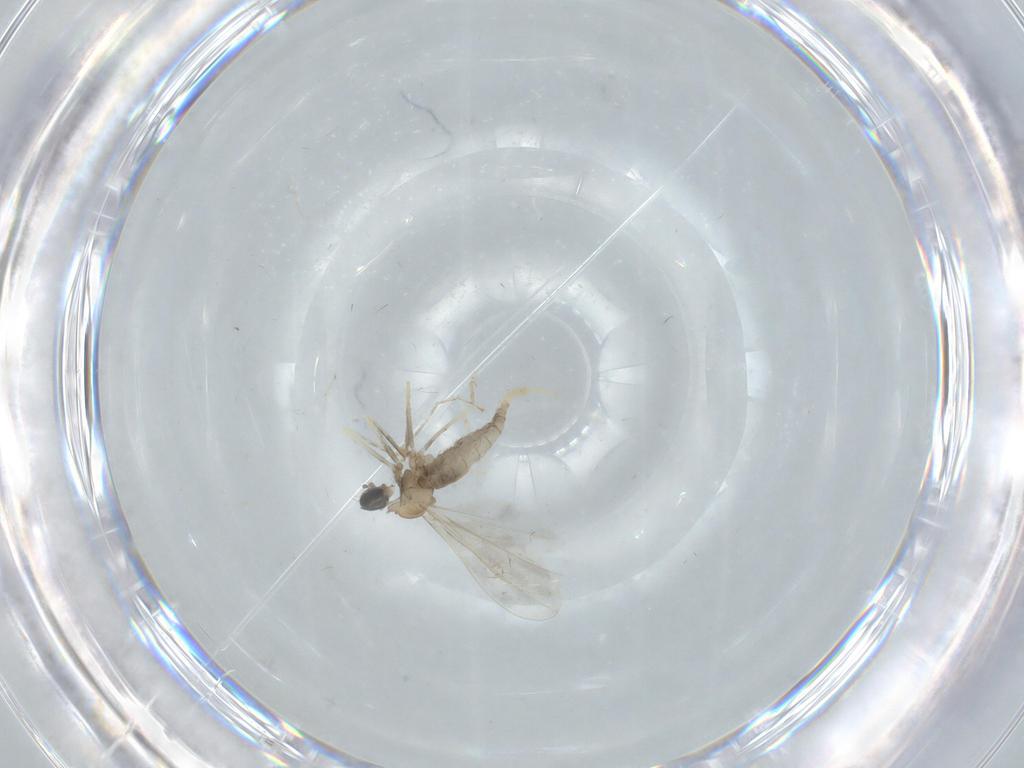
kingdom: Animalia
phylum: Arthropoda
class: Insecta
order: Diptera
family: Cecidomyiidae
